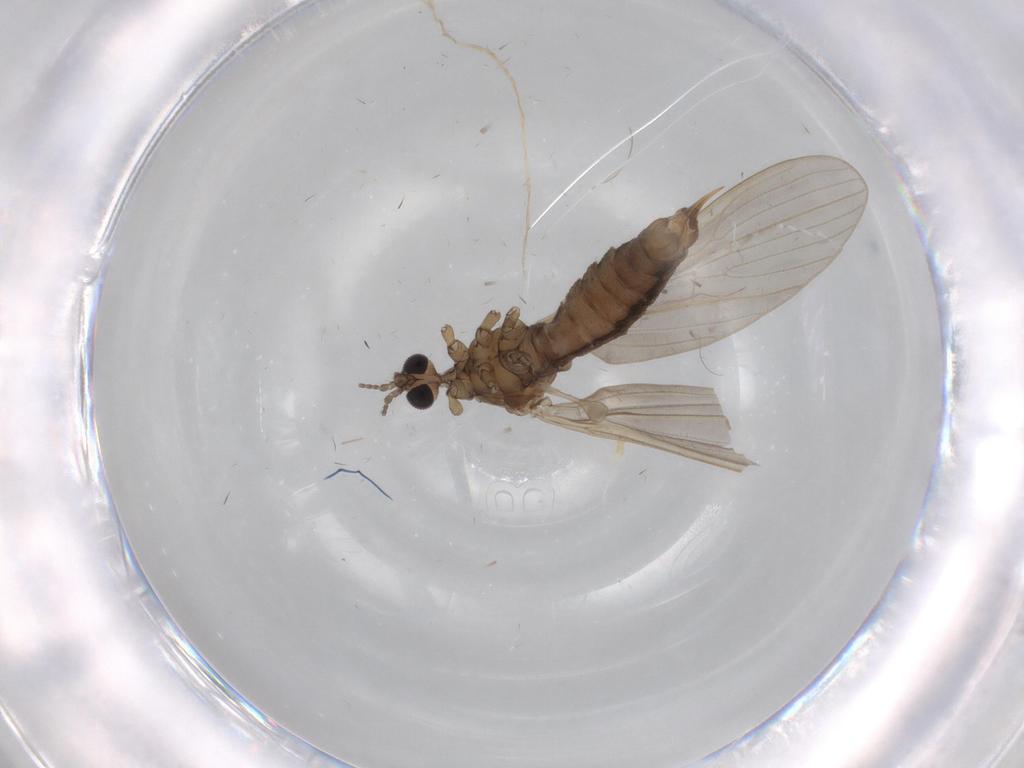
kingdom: Animalia
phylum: Arthropoda
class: Insecta
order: Diptera
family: Limoniidae
